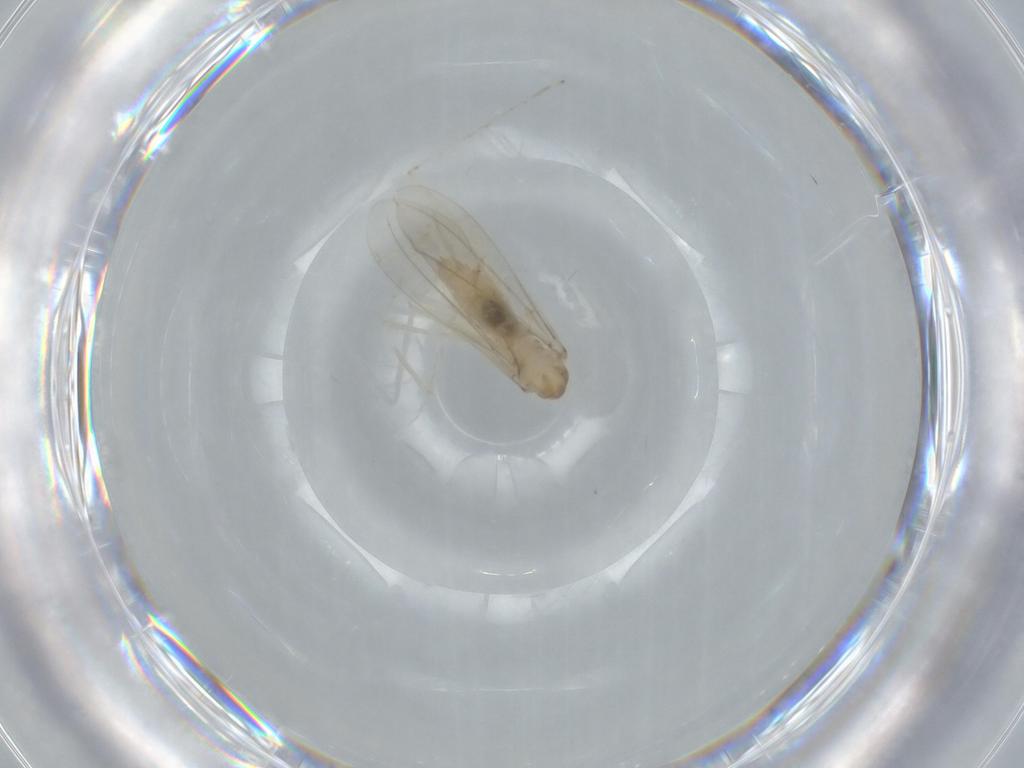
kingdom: Animalia
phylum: Arthropoda
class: Insecta
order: Diptera
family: Cecidomyiidae
